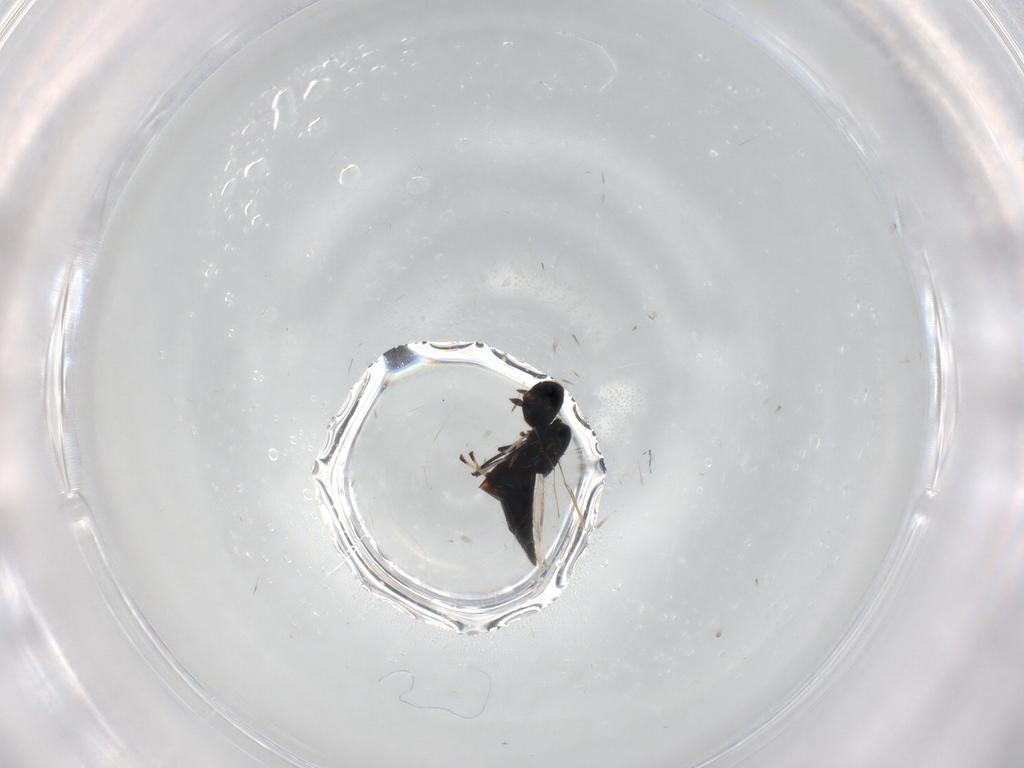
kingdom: Animalia
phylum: Arthropoda
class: Insecta
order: Hymenoptera
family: Eulophidae
